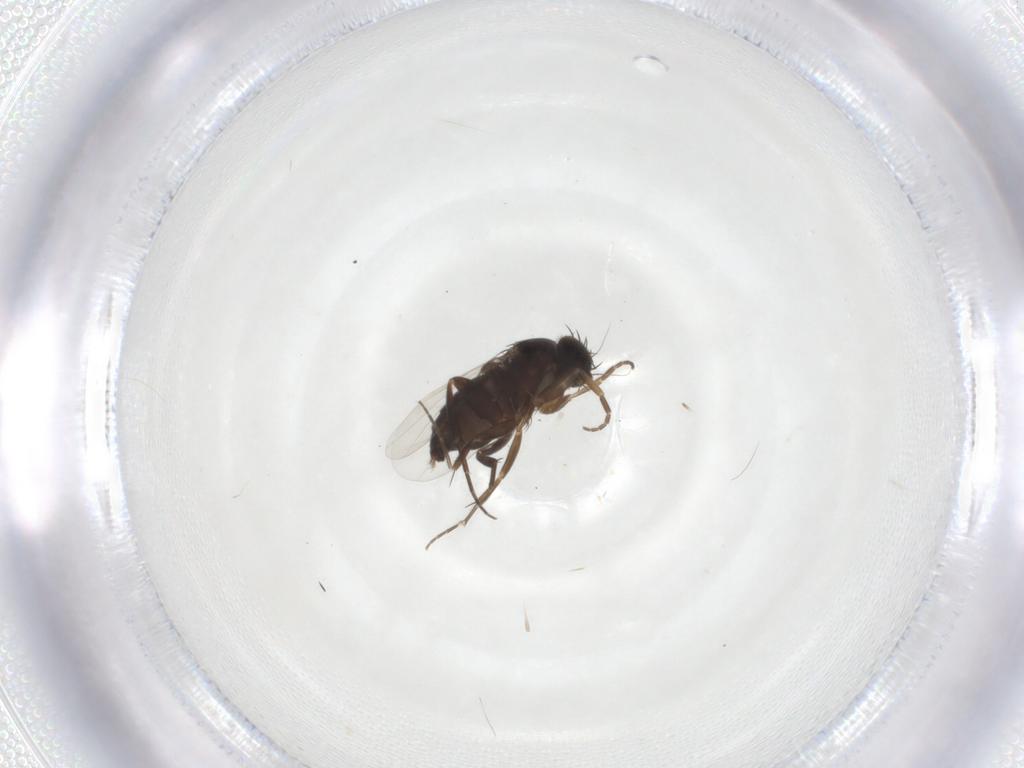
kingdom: Animalia
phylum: Arthropoda
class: Insecta
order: Diptera
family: Phoridae
